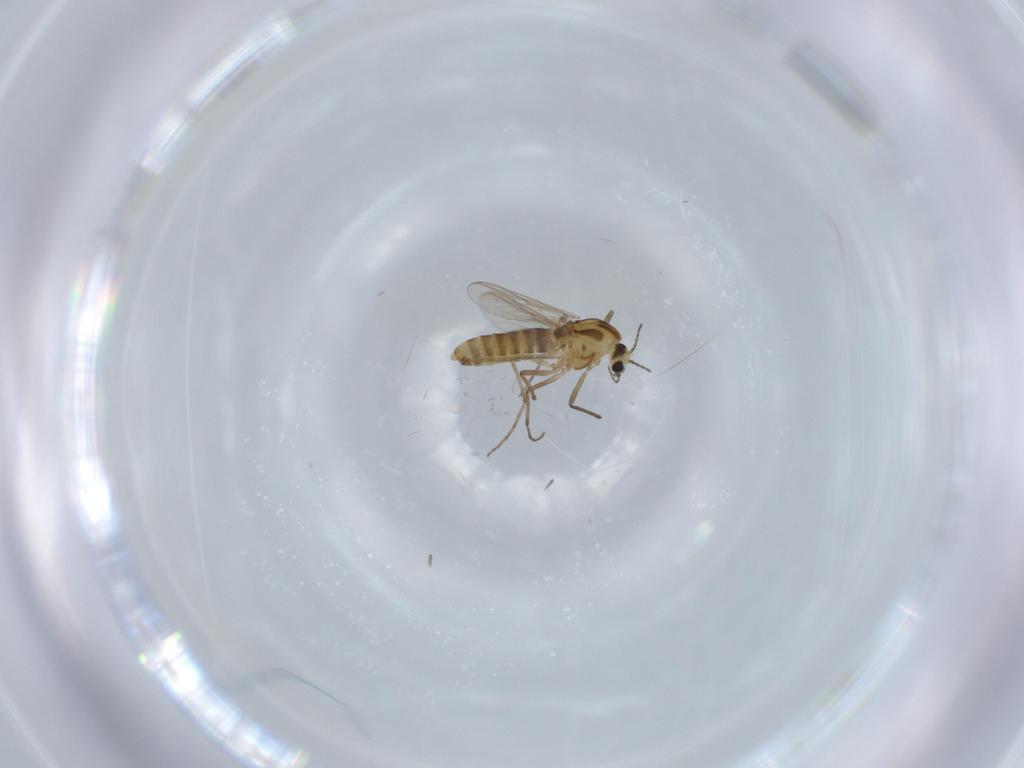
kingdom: Animalia
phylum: Arthropoda
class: Insecta
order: Diptera
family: Chironomidae
